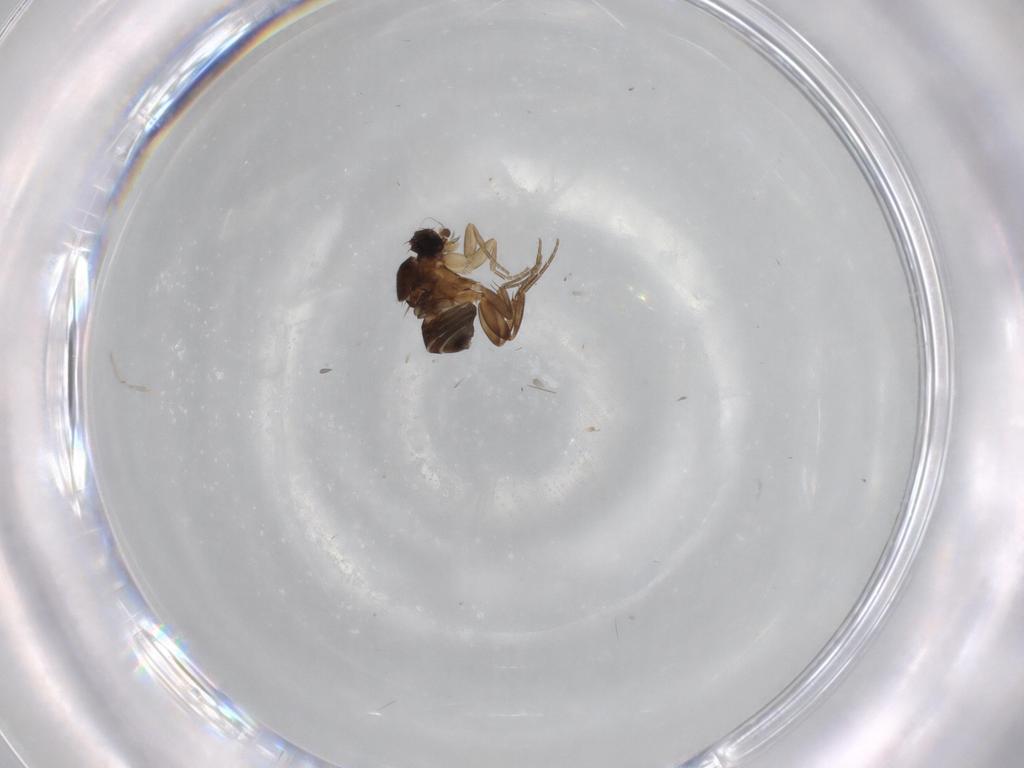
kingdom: Animalia
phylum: Arthropoda
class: Insecta
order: Diptera
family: Phoridae
